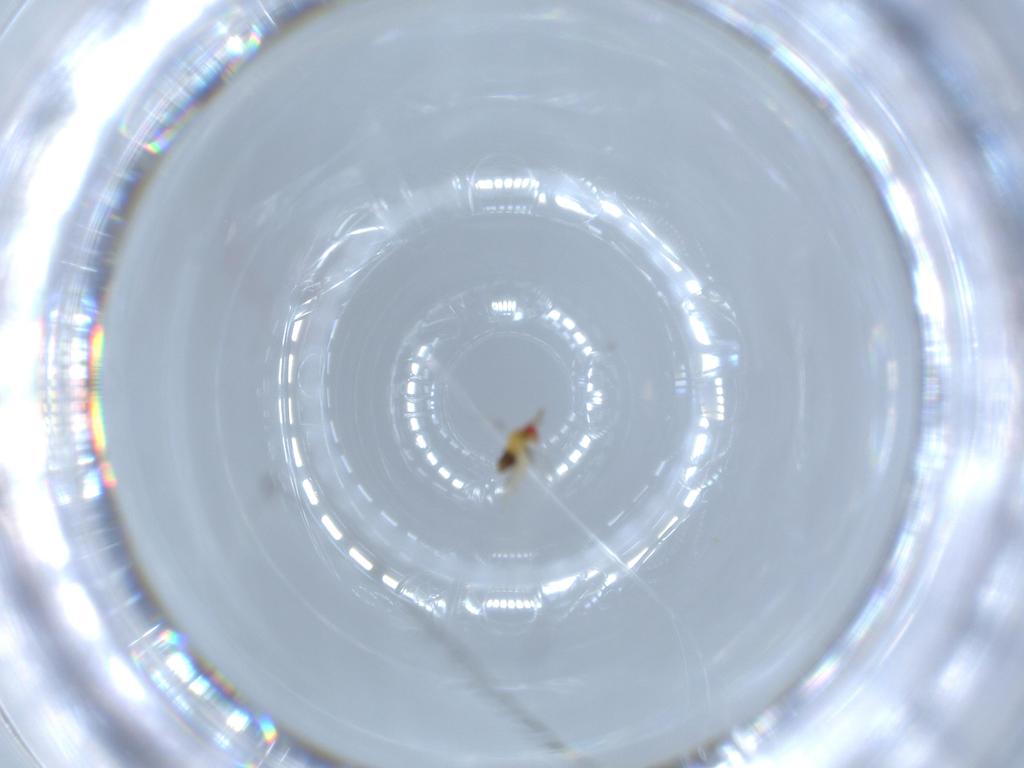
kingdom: Animalia
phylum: Arthropoda
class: Insecta
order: Hymenoptera
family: Trichogrammatidae
